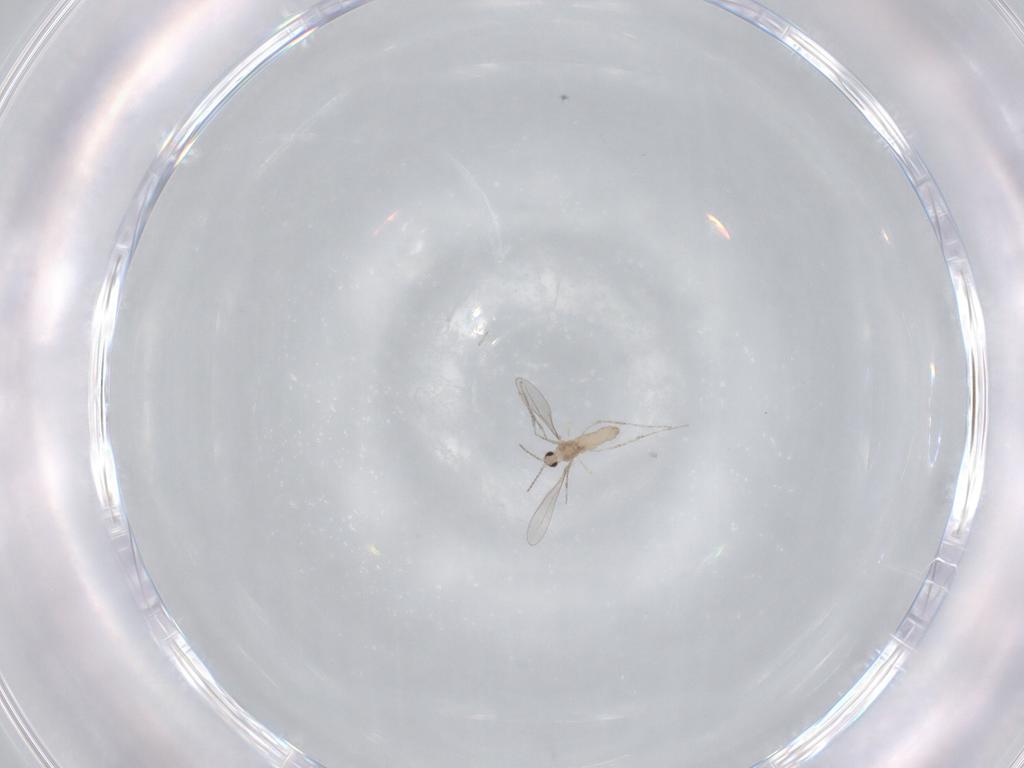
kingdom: Animalia
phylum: Arthropoda
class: Insecta
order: Diptera
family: Cecidomyiidae
